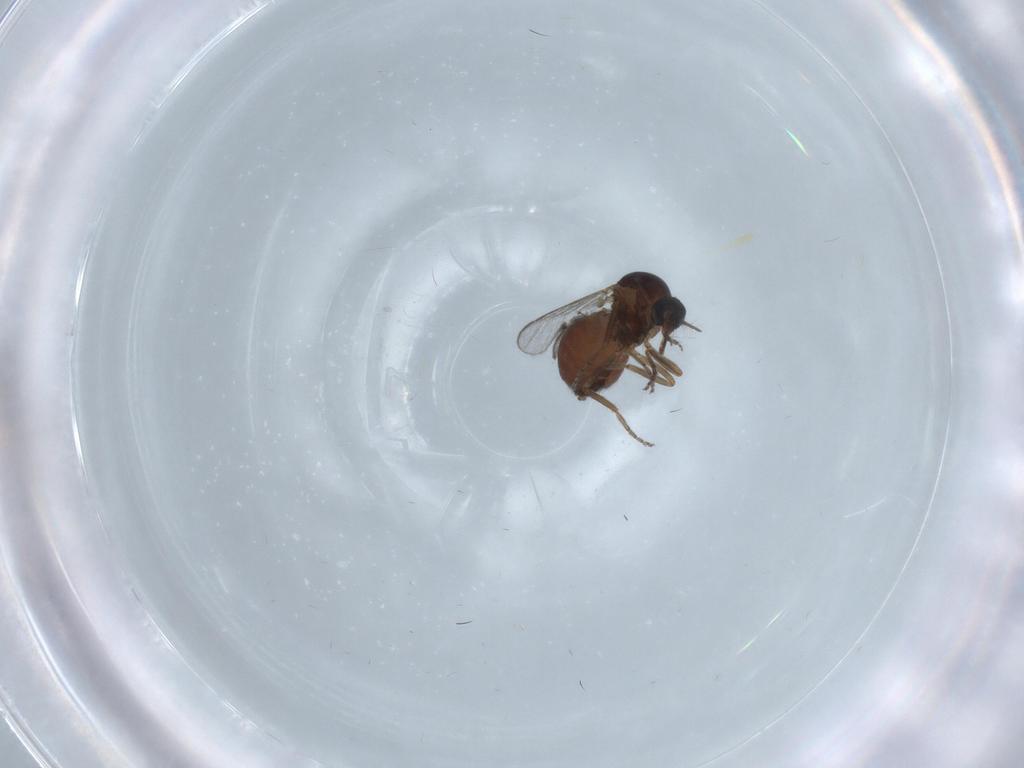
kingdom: Animalia
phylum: Arthropoda
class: Insecta
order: Diptera
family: Ceratopogonidae
